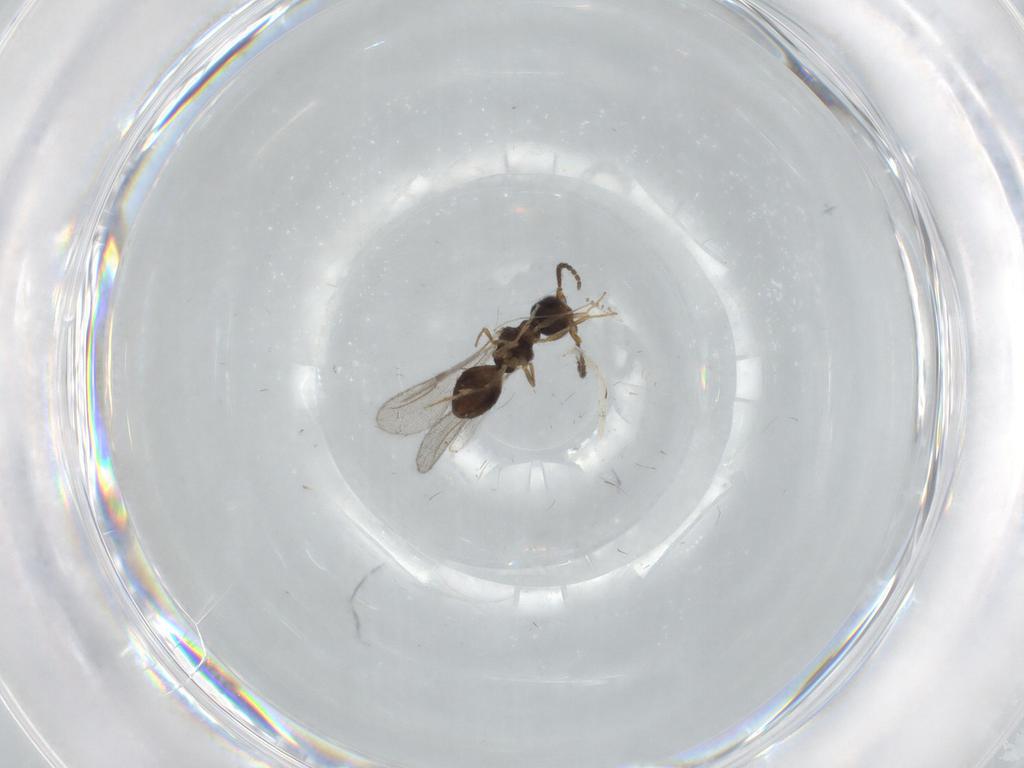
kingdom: Animalia
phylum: Arthropoda
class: Insecta
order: Hymenoptera
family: Bethylidae
